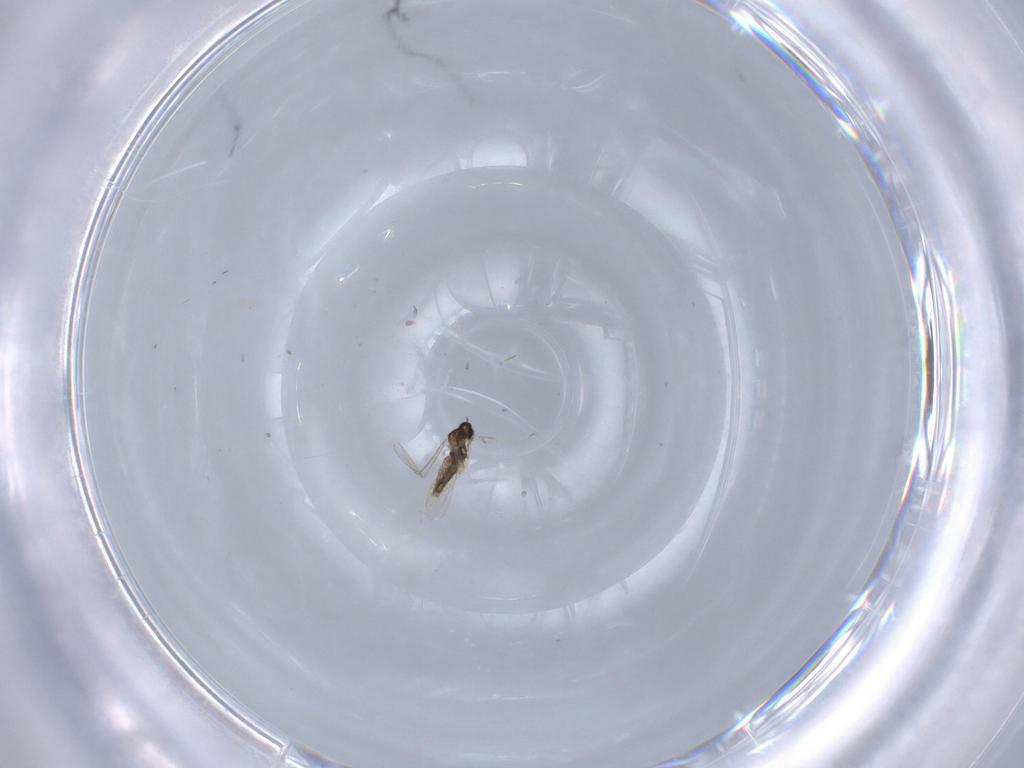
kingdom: Animalia
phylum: Arthropoda
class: Insecta
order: Diptera
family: Cecidomyiidae
